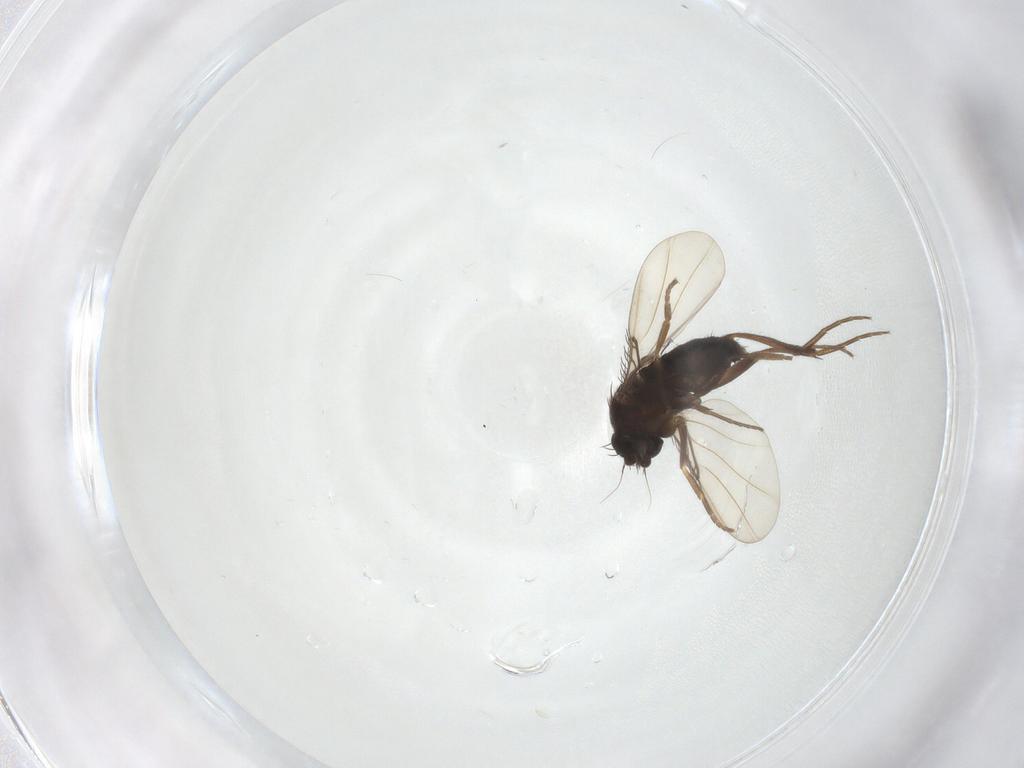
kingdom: Animalia
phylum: Arthropoda
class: Insecta
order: Diptera
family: Phoridae
